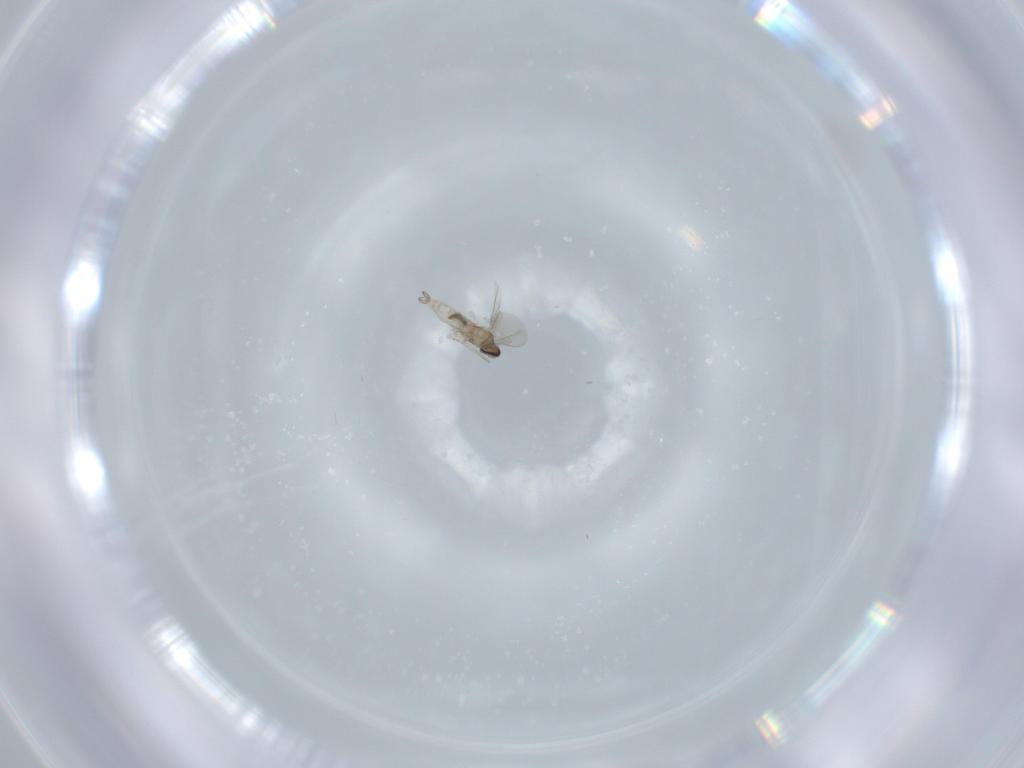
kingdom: Animalia
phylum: Arthropoda
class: Insecta
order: Diptera
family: Cecidomyiidae
